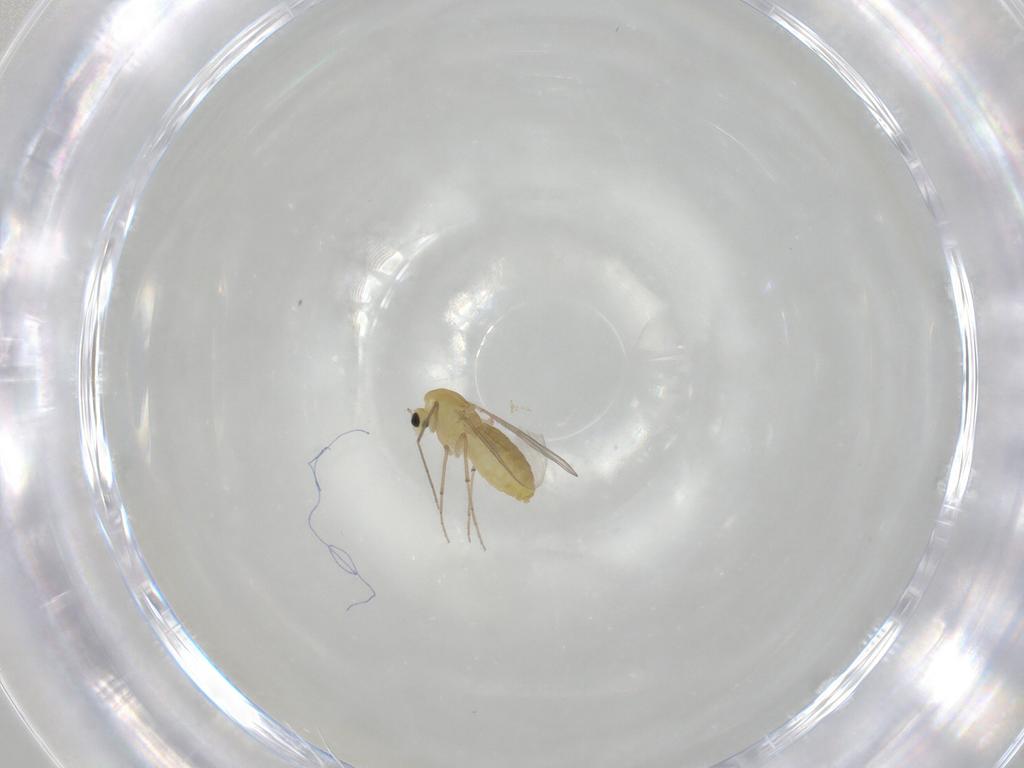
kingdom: Animalia
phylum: Arthropoda
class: Insecta
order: Diptera
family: Chironomidae
